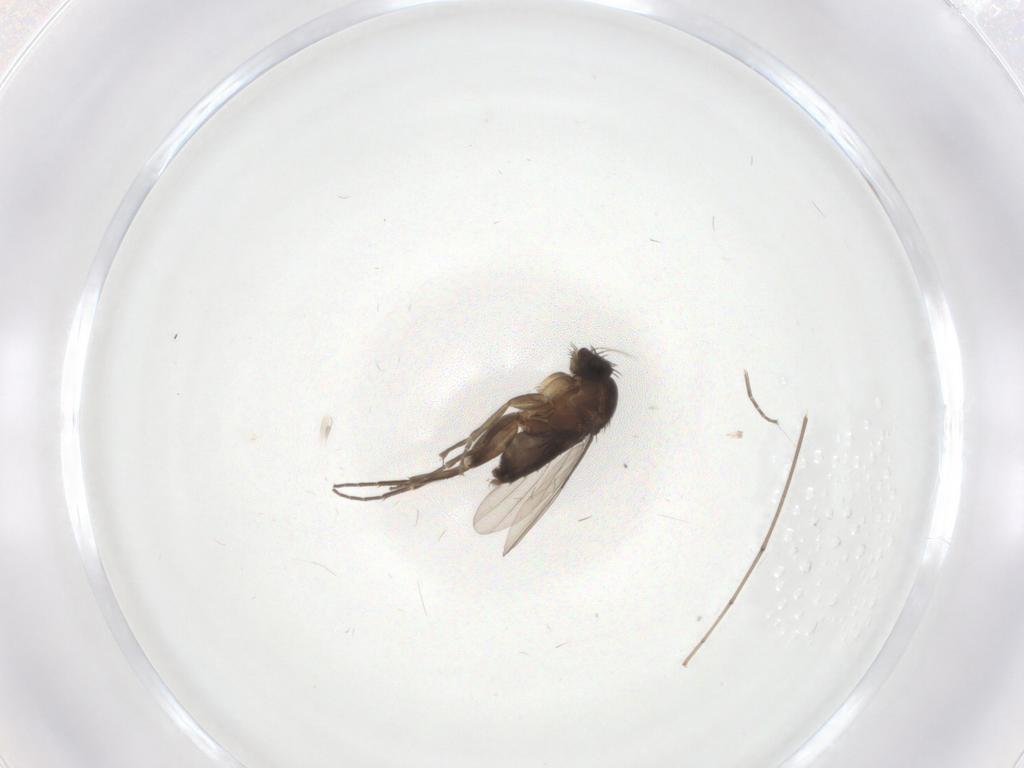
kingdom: Animalia
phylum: Arthropoda
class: Insecta
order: Diptera
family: Phoridae
